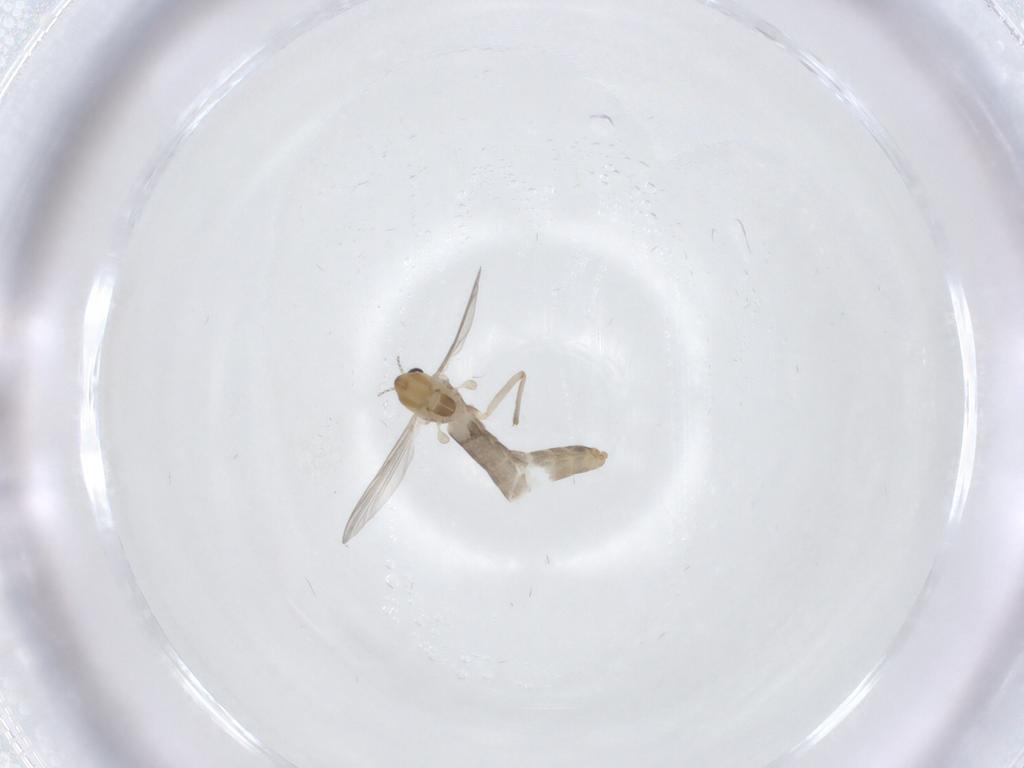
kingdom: Animalia
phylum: Arthropoda
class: Insecta
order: Diptera
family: Chironomidae
